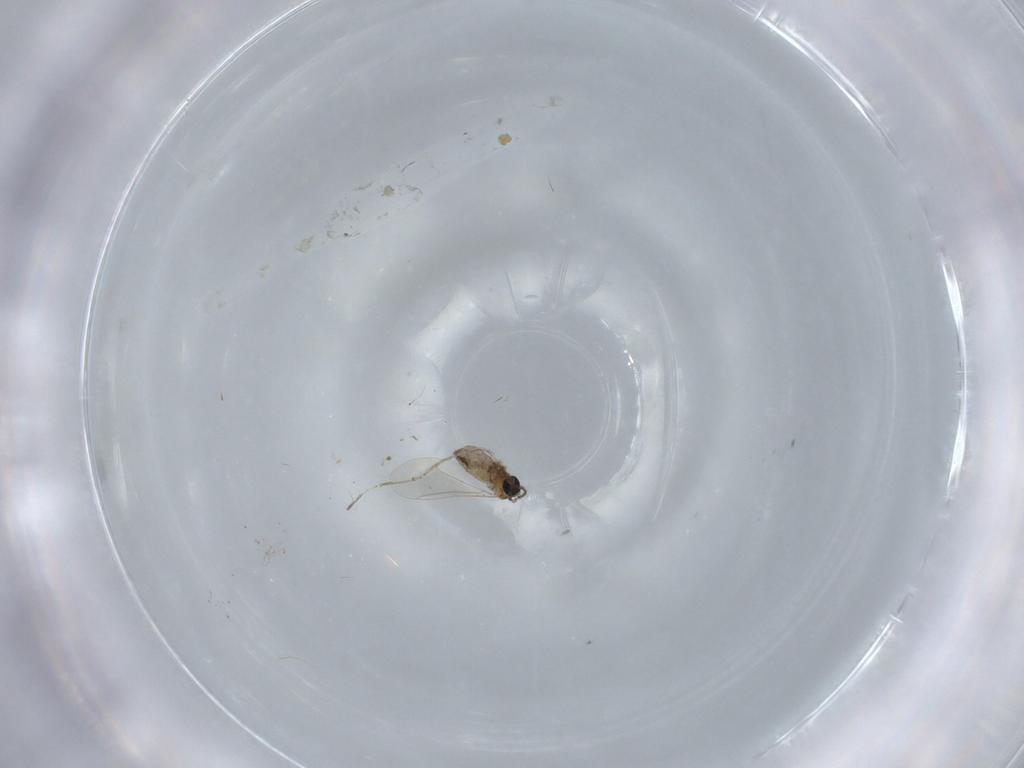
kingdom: Animalia
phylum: Arthropoda
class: Insecta
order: Diptera
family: Cecidomyiidae
